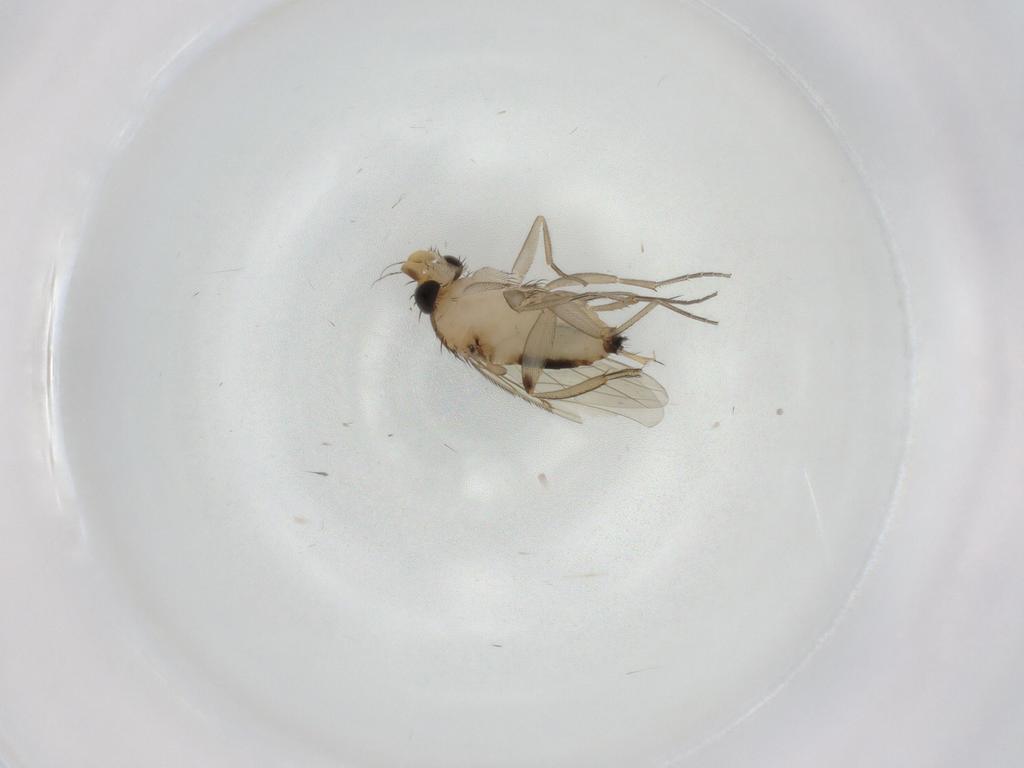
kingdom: Animalia
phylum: Arthropoda
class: Insecta
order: Diptera
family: Phoridae
